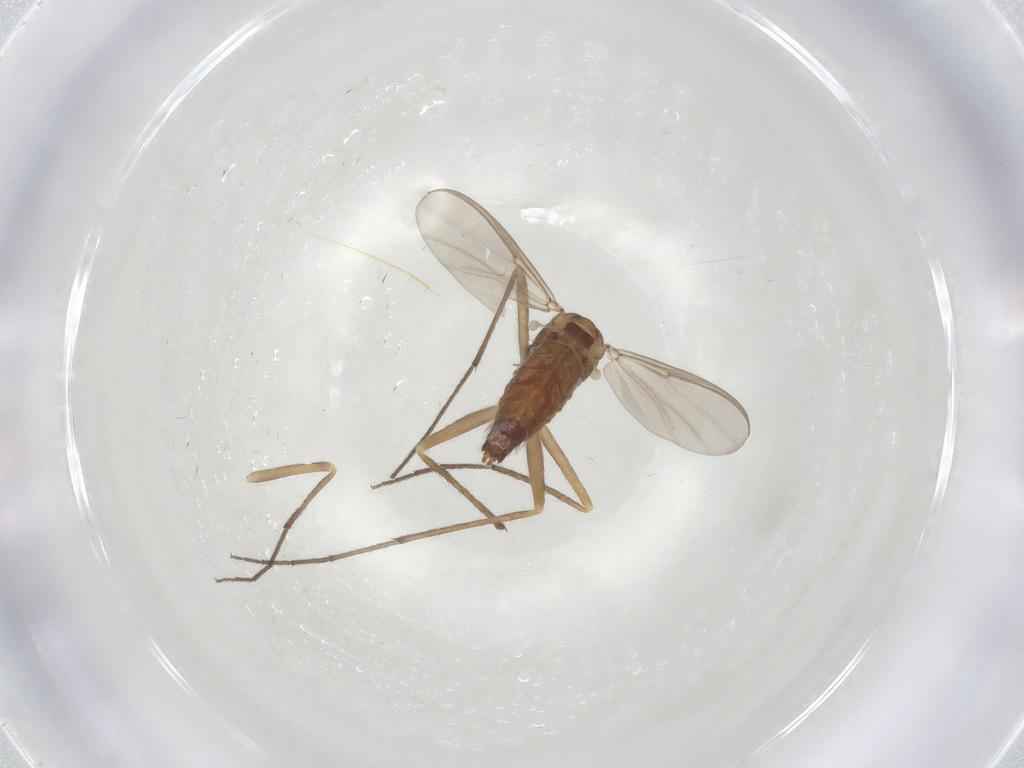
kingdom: Animalia
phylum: Arthropoda
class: Insecta
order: Diptera
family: Chironomidae
